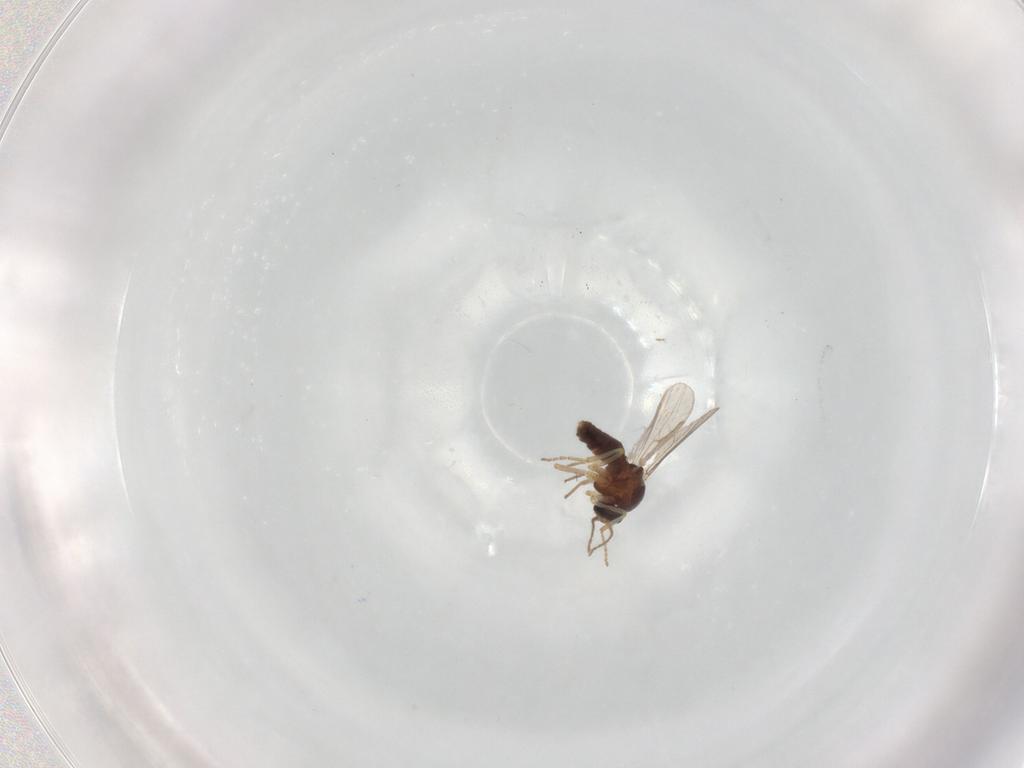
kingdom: Animalia
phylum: Arthropoda
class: Insecta
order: Diptera
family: Ceratopogonidae
